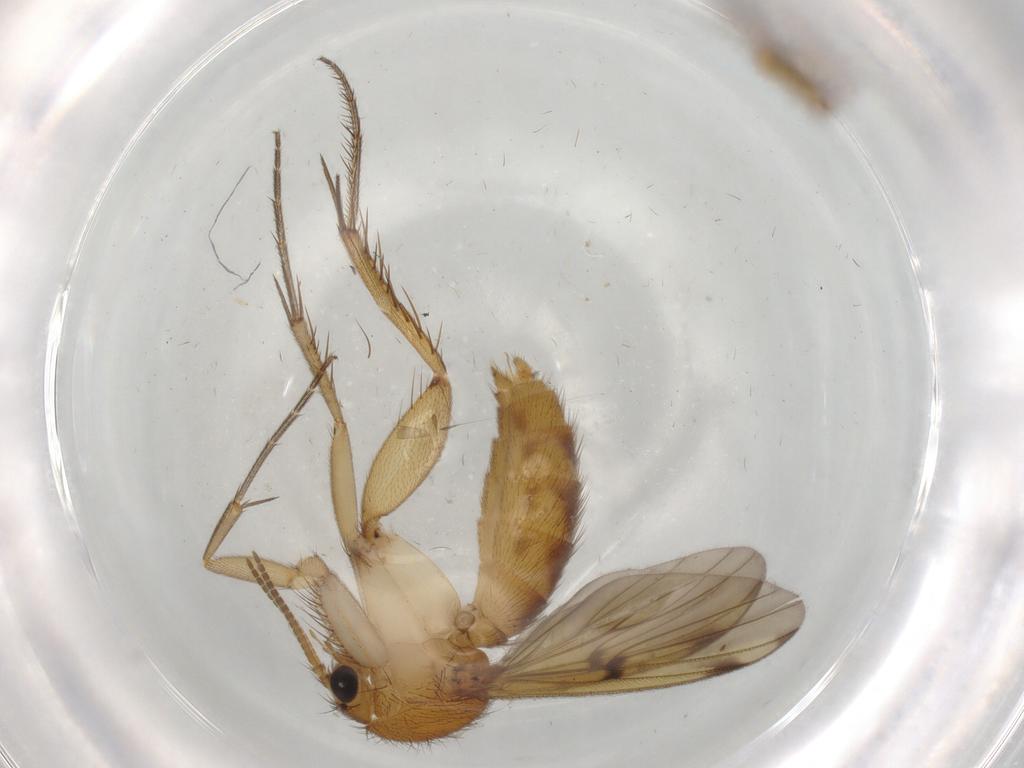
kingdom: Animalia
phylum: Arthropoda
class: Insecta
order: Diptera
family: Mycetophilidae
